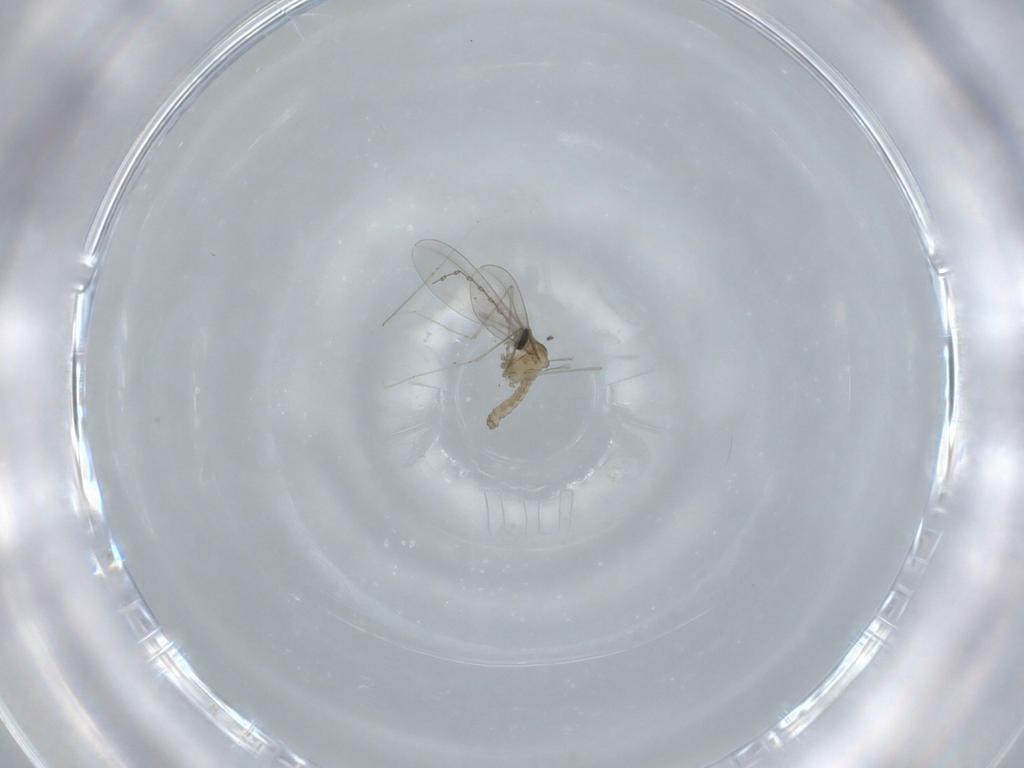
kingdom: Animalia
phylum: Arthropoda
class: Insecta
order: Diptera
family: Cecidomyiidae
